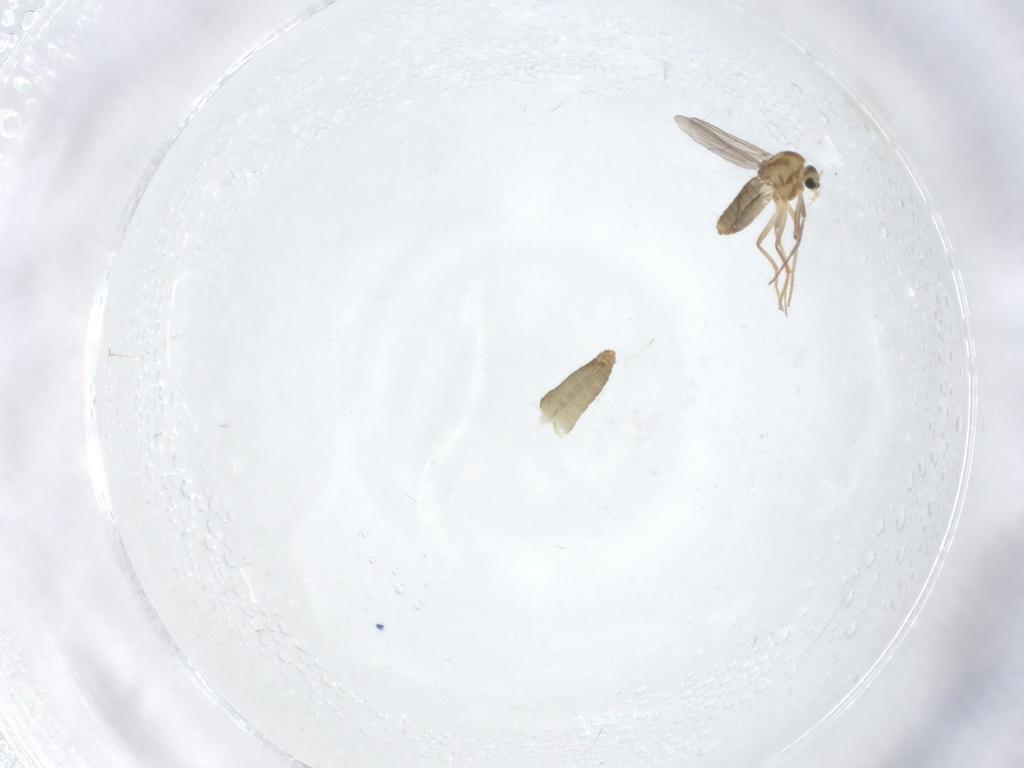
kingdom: Animalia
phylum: Arthropoda
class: Insecta
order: Diptera
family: Chironomidae
